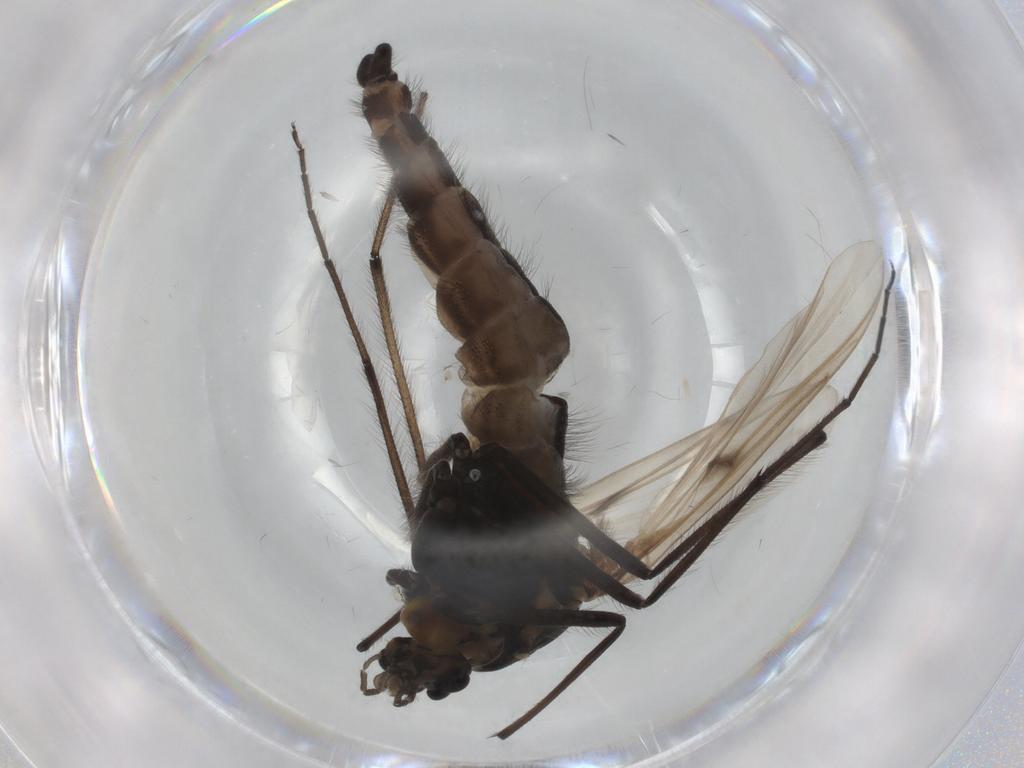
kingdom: Animalia
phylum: Arthropoda
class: Insecta
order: Diptera
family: Chironomidae
